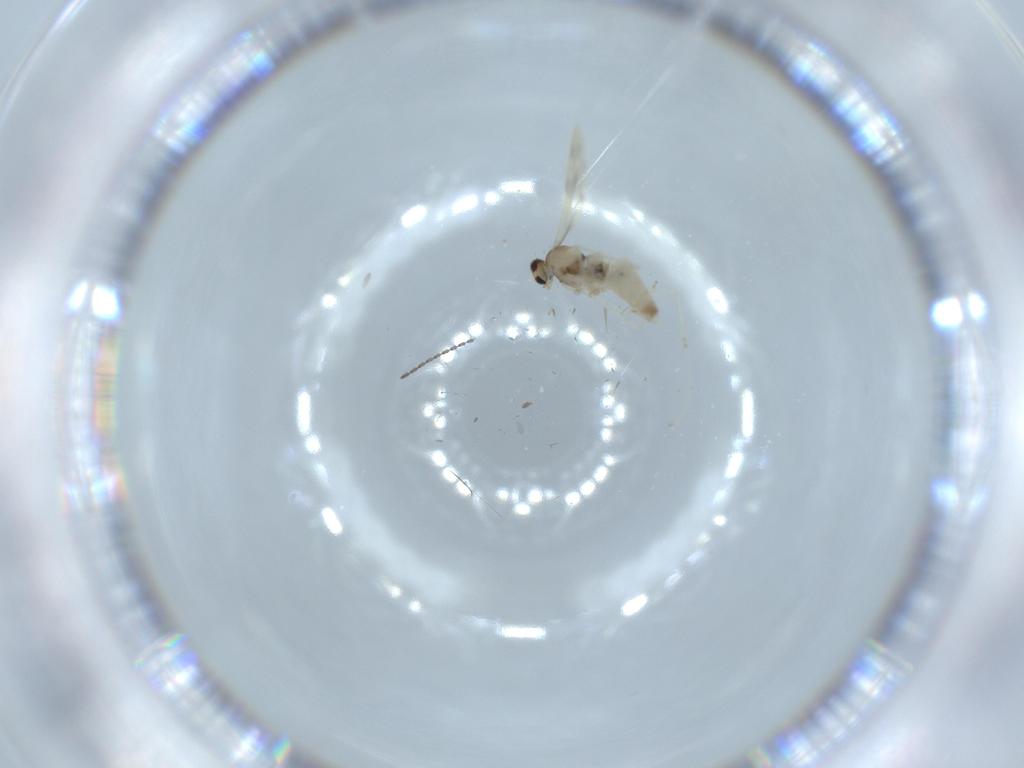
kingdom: Animalia
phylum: Arthropoda
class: Insecta
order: Diptera
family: Cecidomyiidae
